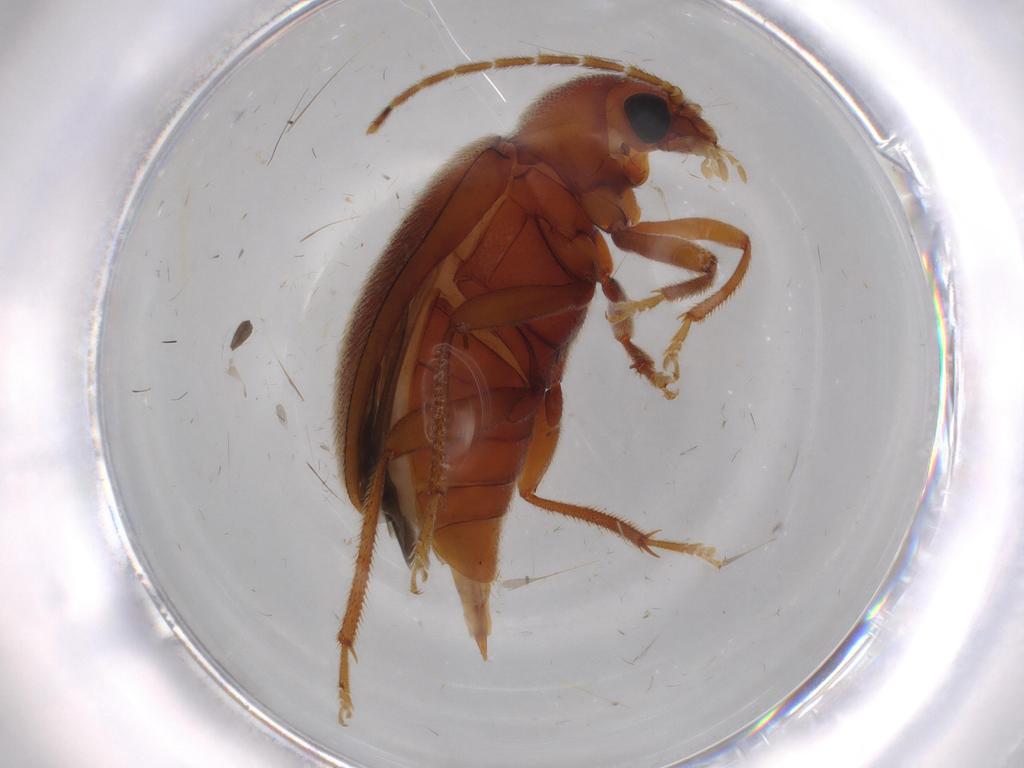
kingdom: Animalia
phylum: Arthropoda
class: Insecta
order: Coleoptera
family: Ptilodactylidae
